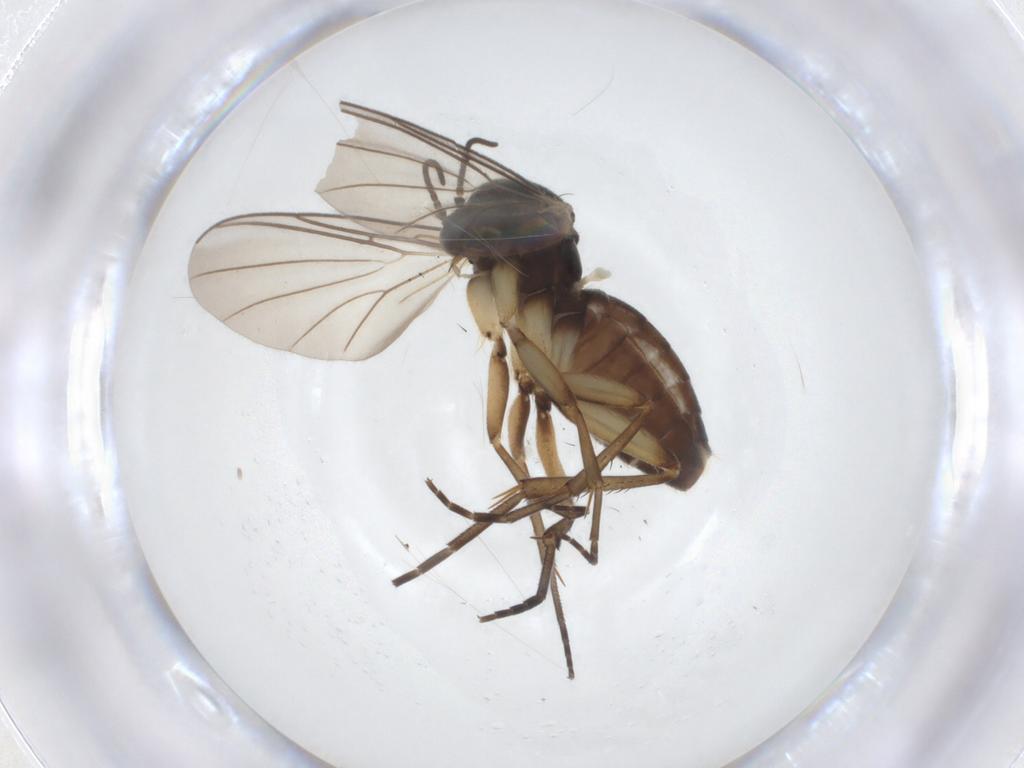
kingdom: Animalia
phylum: Arthropoda
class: Insecta
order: Diptera
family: Mycetophilidae
